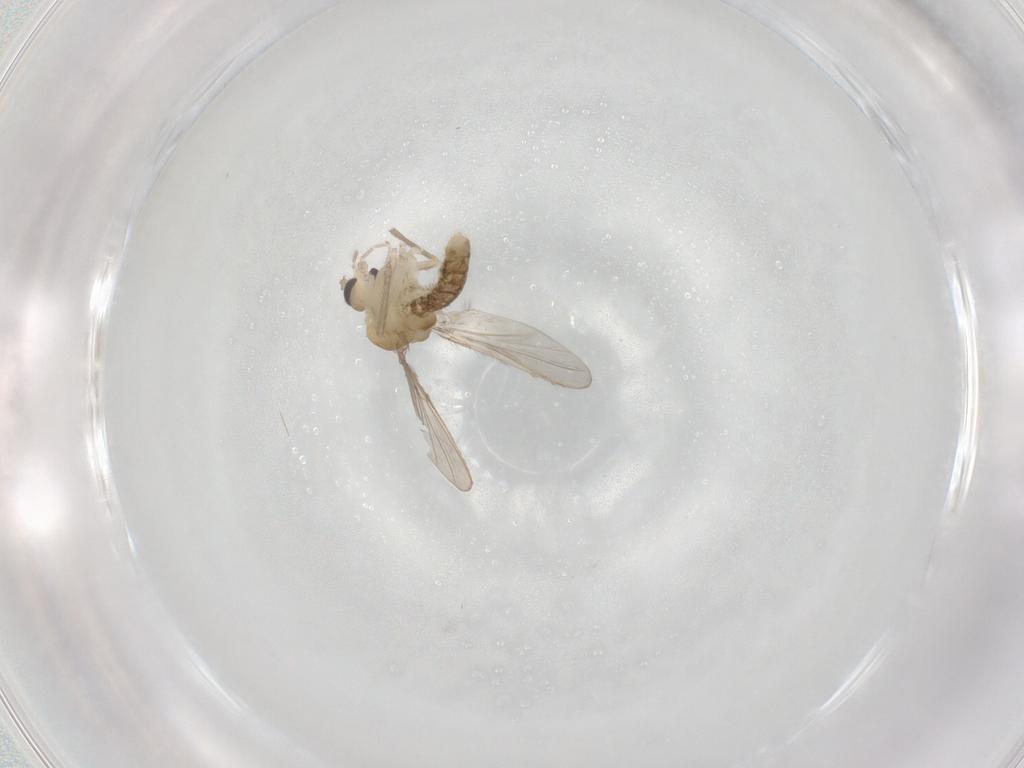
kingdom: Animalia
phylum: Arthropoda
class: Insecta
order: Diptera
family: Chironomidae
